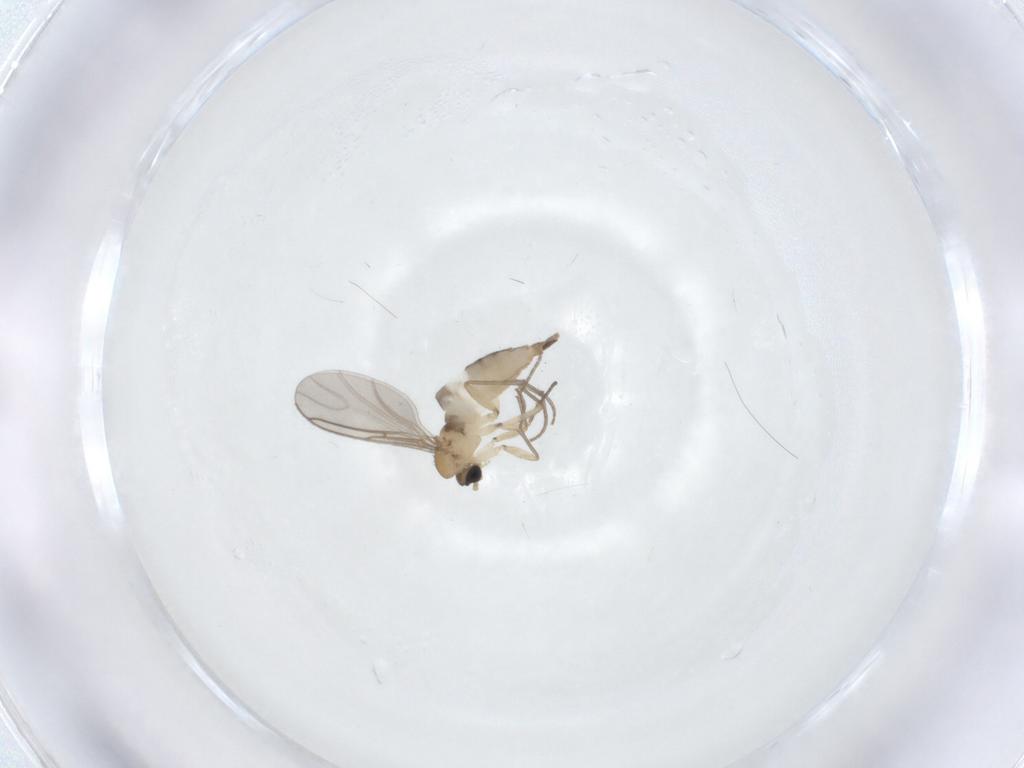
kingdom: Animalia
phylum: Arthropoda
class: Insecta
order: Diptera
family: Sciaridae
